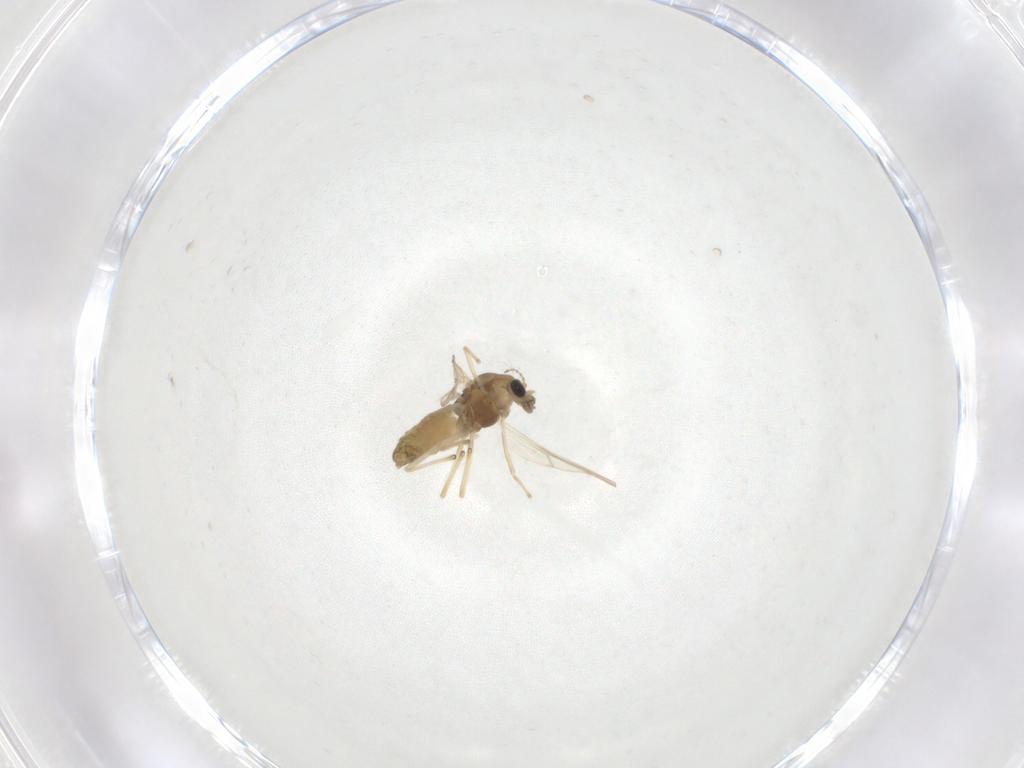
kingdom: Animalia
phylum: Arthropoda
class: Insecta
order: Diptera
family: Chironomidae
